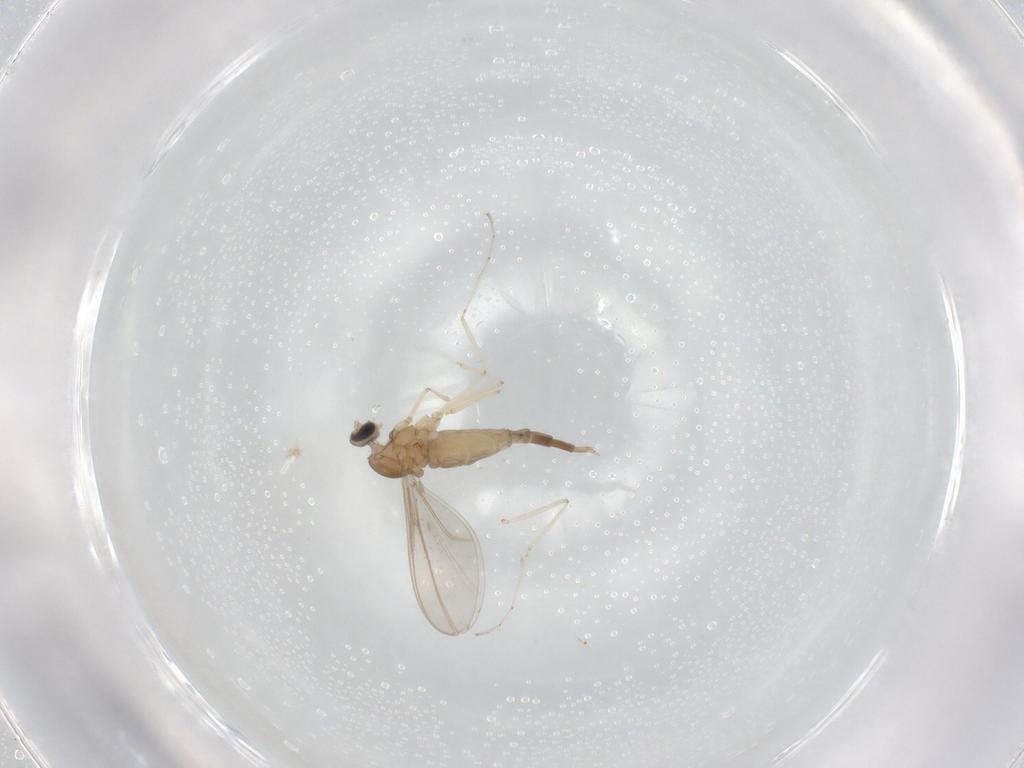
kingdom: Animalia
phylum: Arthropoda
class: Insecta
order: Diptera
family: Cecidomyiidae
